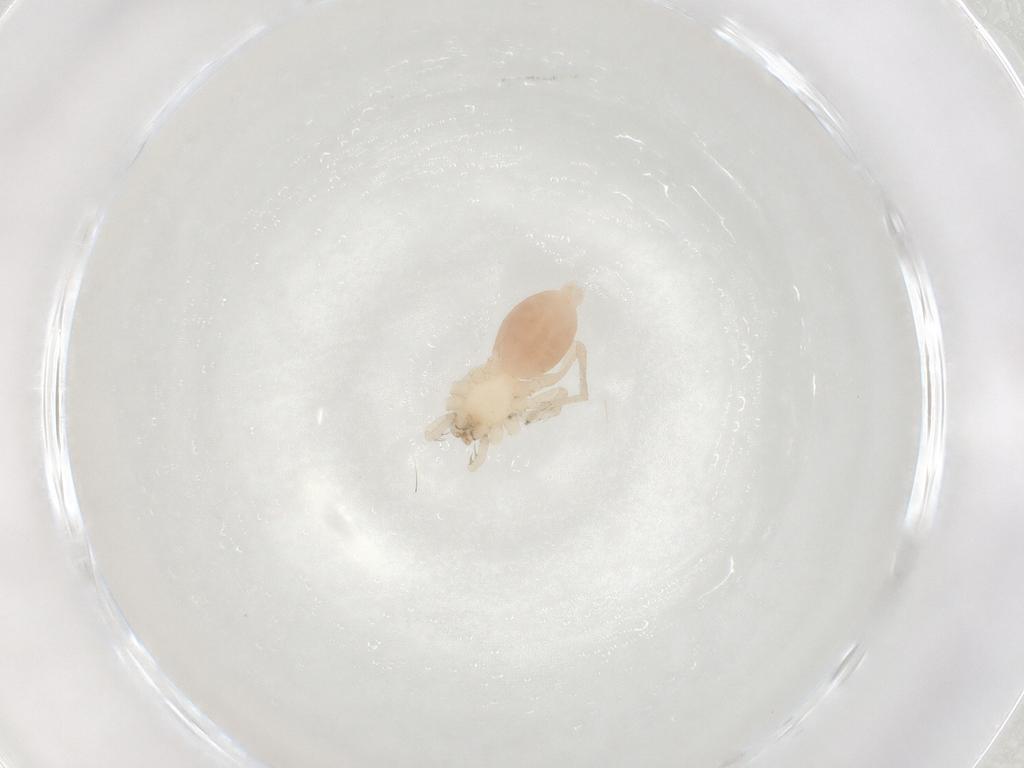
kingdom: Animalia
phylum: Arthropoda
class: Arachnida
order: Araneae
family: Gnaphosidae
